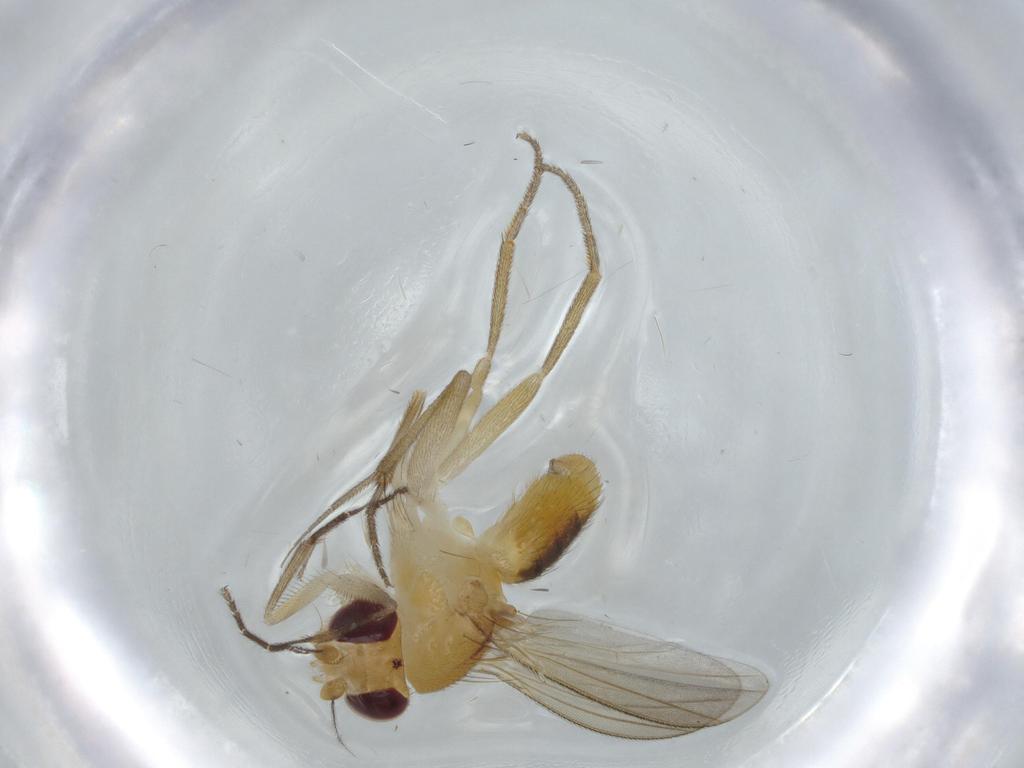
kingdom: Animalia
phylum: Arthropoda
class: Insecta
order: Diptera
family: Clusiidae
